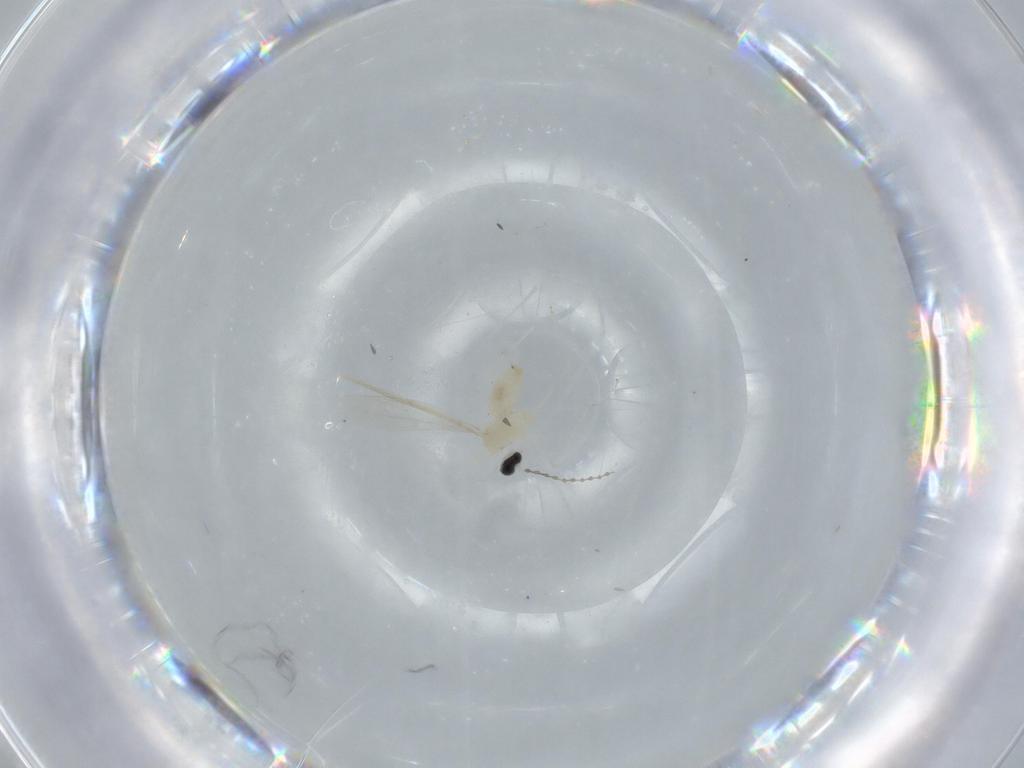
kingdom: Animalia
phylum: Arthropoda
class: Insecta
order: Diptera
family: Cecidomyiidae
